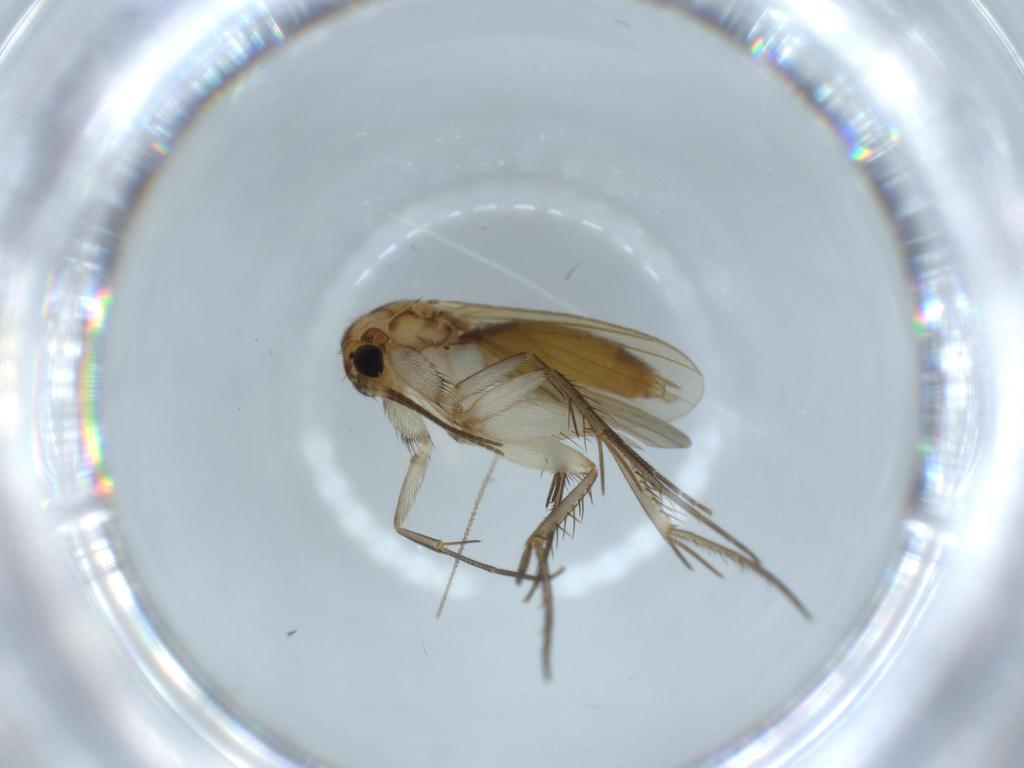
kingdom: Animalia
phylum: Arthropoda
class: Insecta
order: Diptera
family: Mycetophilidae
